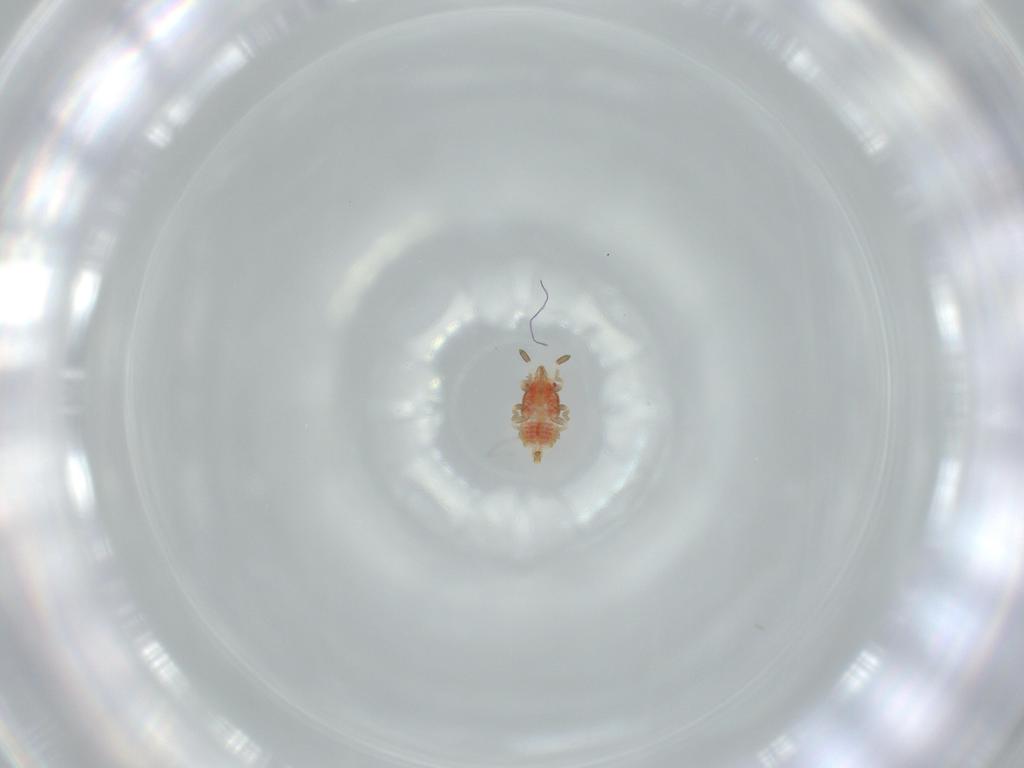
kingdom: Animalia
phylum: Arthropoda
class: Insecta
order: Hemiptera
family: Aradidae
